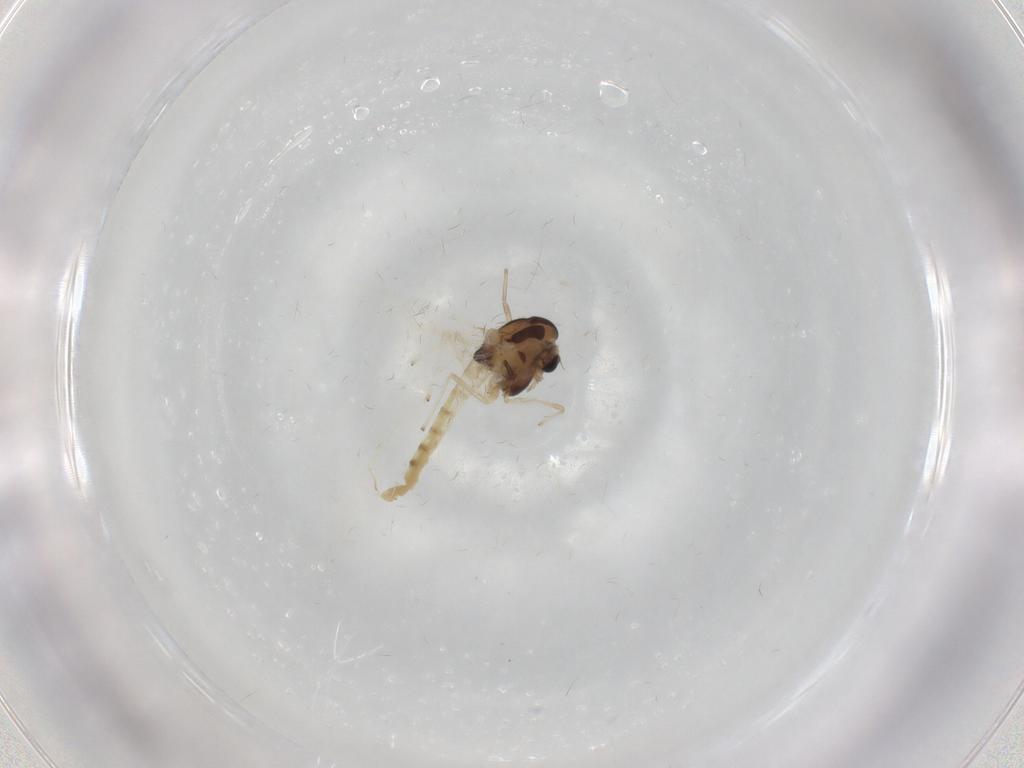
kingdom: Animalia
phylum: Arthropoda
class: Insecta
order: Diptera
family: Chironomidae
